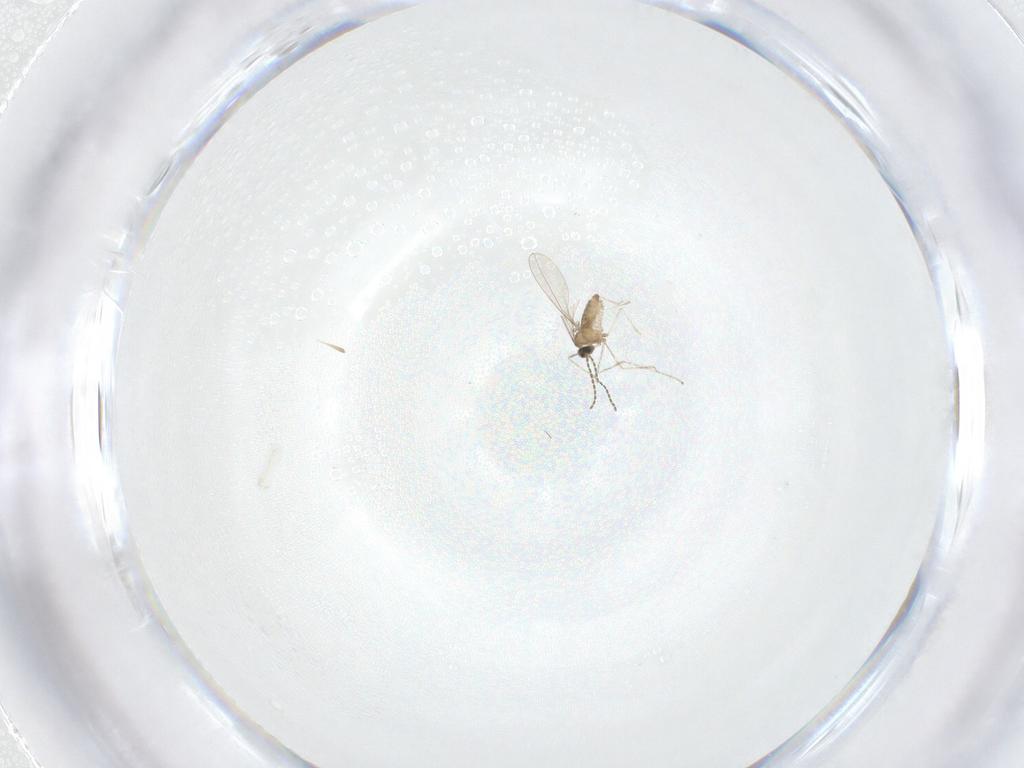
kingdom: Animalia
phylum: Arthropoda
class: Insecta
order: Diptera
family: Cecidomyiidae
